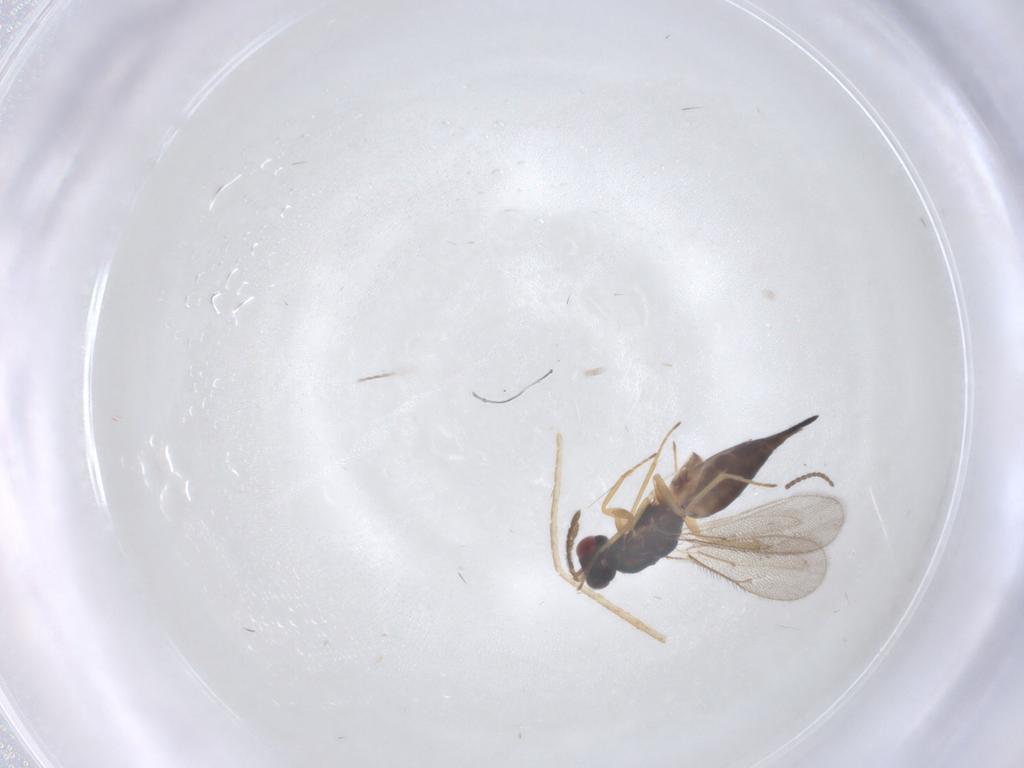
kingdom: Animalia
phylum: Arthropoda
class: Insecta
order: Hymenoptera
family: Eulophidae
